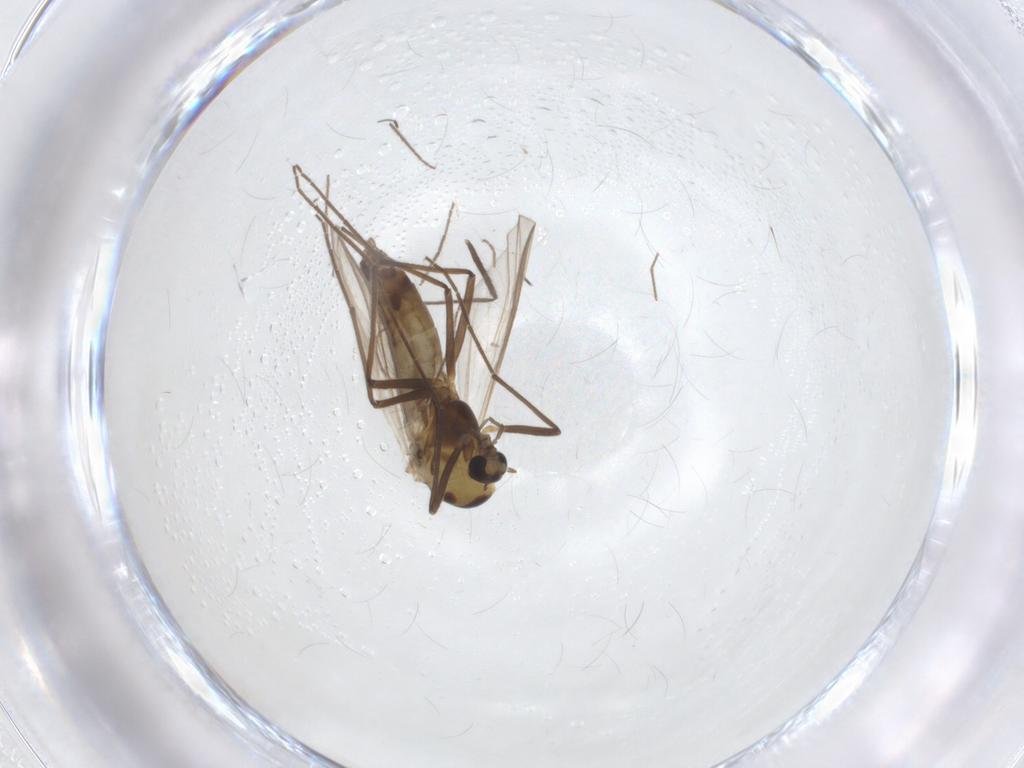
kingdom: Animalia
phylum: Arthropoda
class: Insecta
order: Diptera
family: Chironomidae
